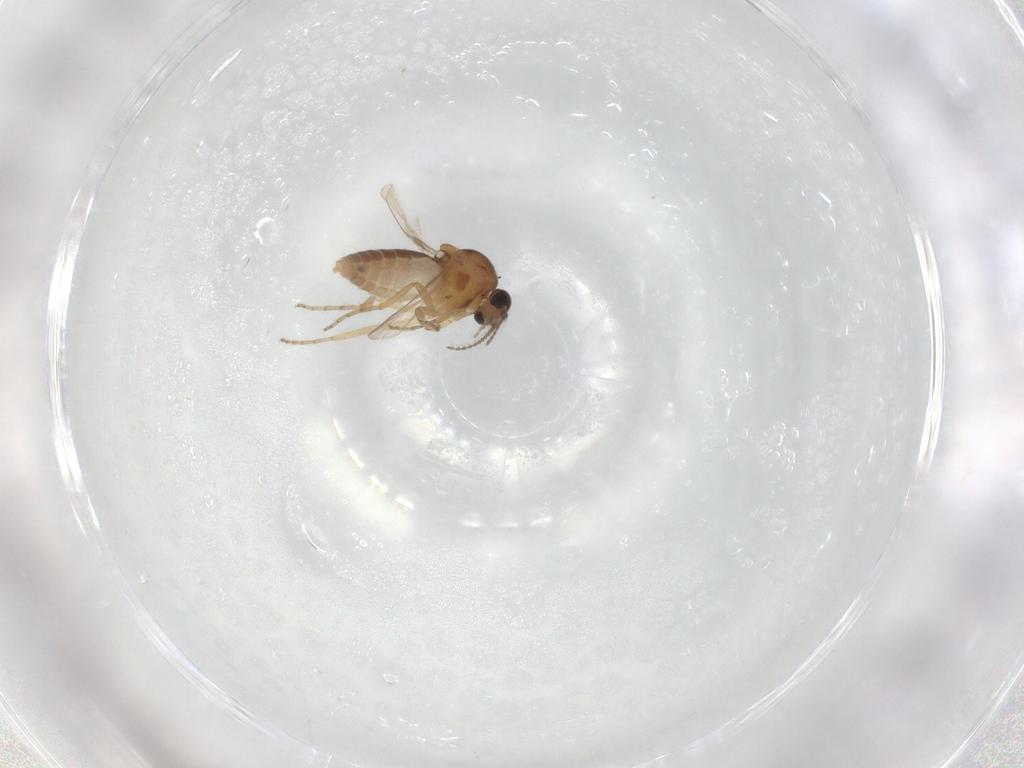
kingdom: Animalia
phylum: Arthropoda
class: Insecta
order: Diptera
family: Ceratopogonidae
